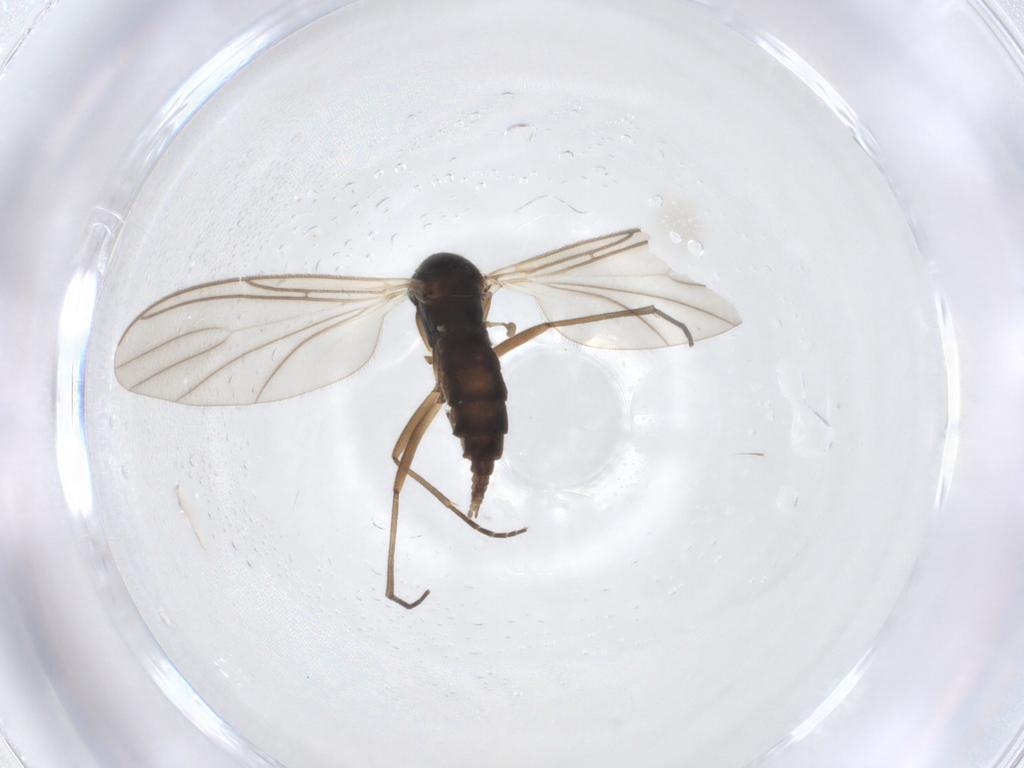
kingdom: Animalia
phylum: Arthropoda
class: Insecta
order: Diptera
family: Sciaridae
